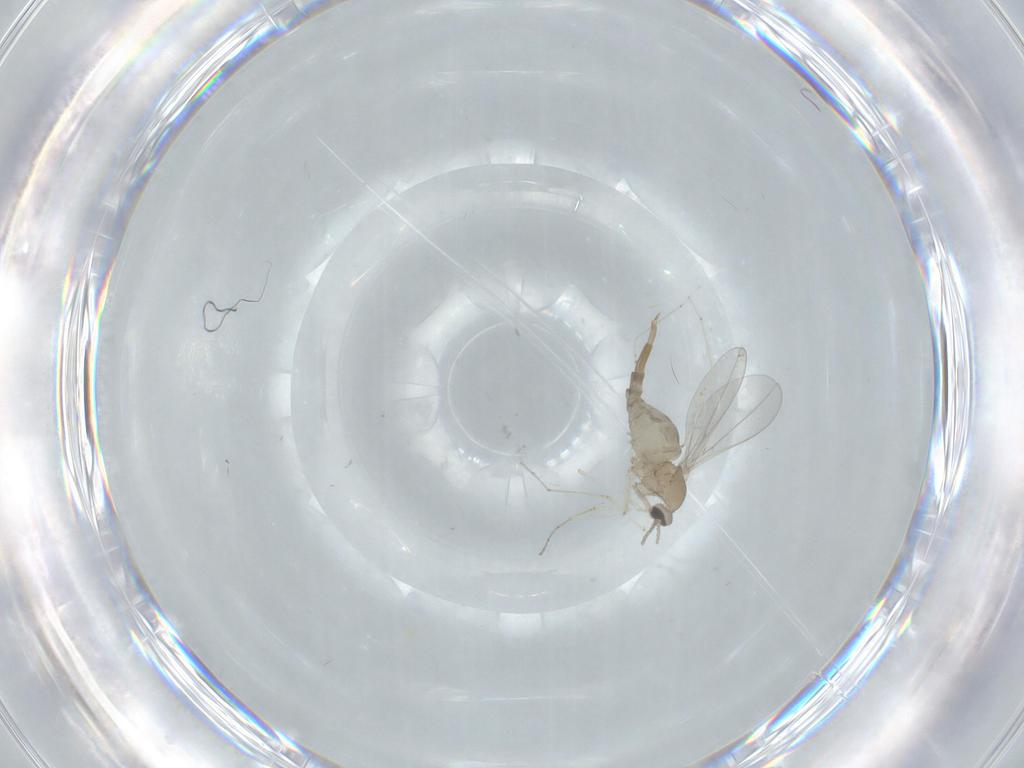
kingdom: Animalia
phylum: Arthropoda
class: Insecta
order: Diptera
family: Cecidomyiidae
